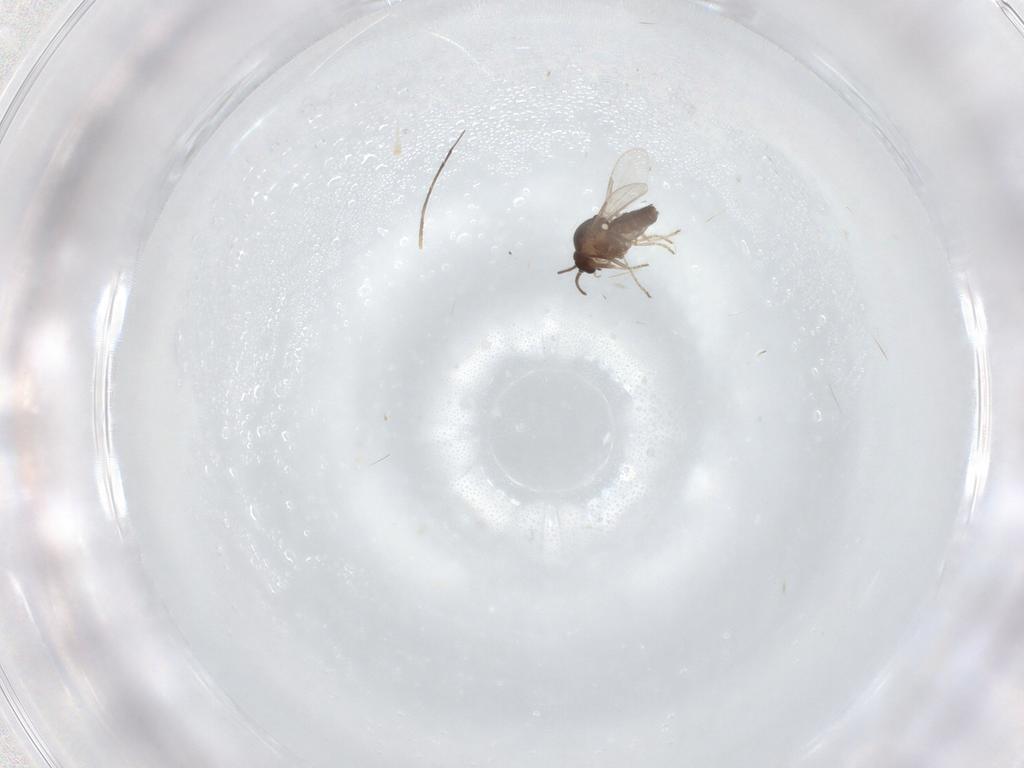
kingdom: Animalia
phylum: Arthropoda
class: Insecta
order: Diptera
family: Ceratopogonidae
